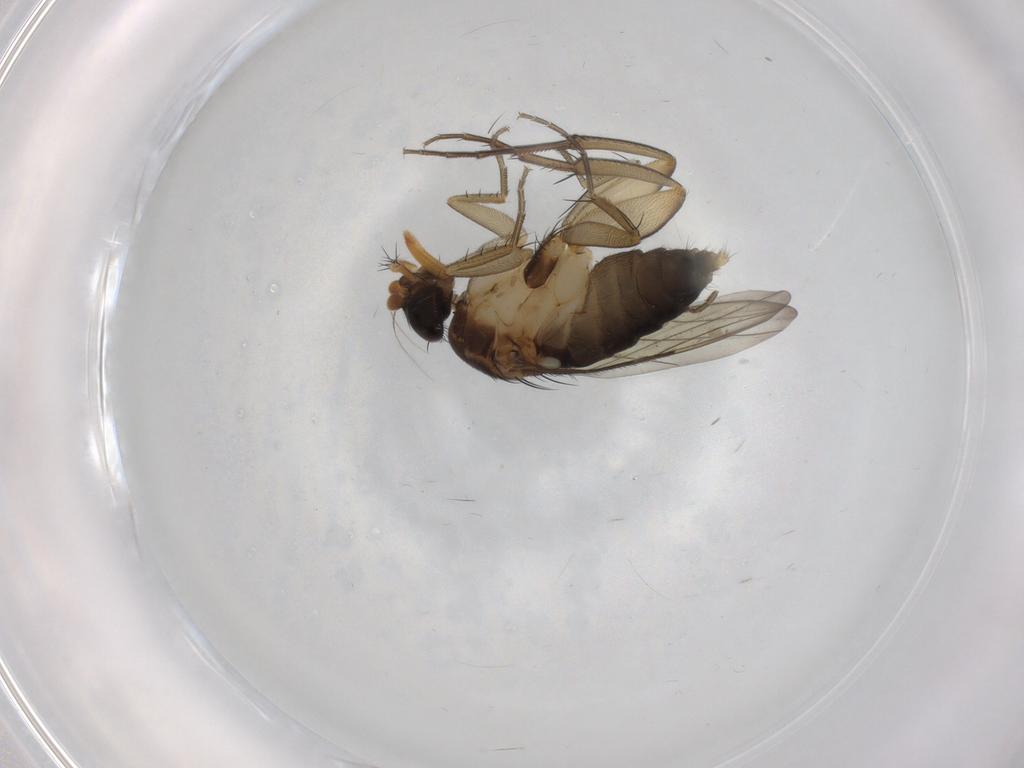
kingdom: Animalia
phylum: Arthropoda
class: Insecta
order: Diptera
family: Phoridae
